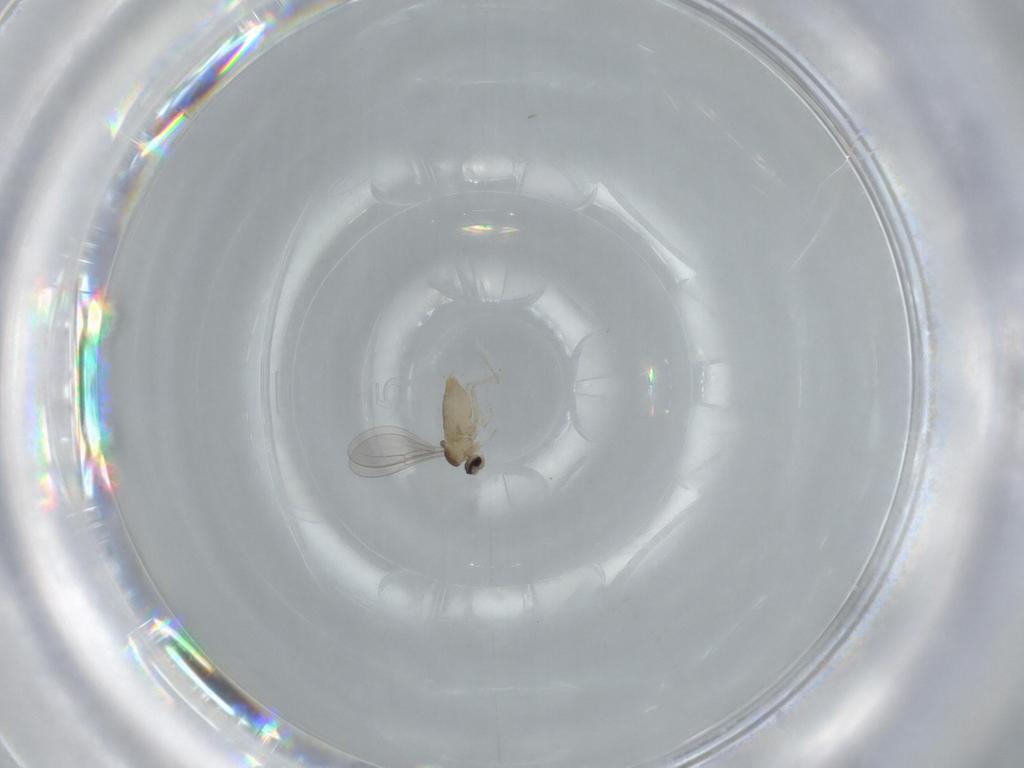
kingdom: Animalia
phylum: Arthropoda
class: Insecta
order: Diptera
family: Cecidomyiidae
